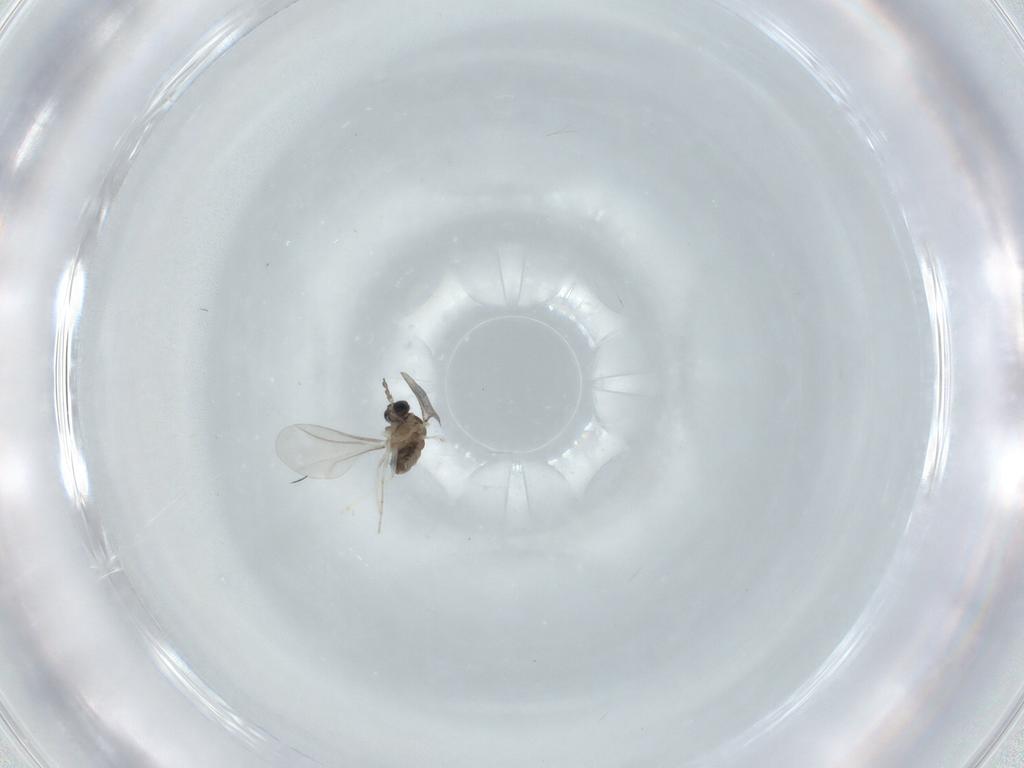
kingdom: Animalia
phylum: Arthropoda
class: Insecta
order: Diptera
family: Cecidomyiidae
